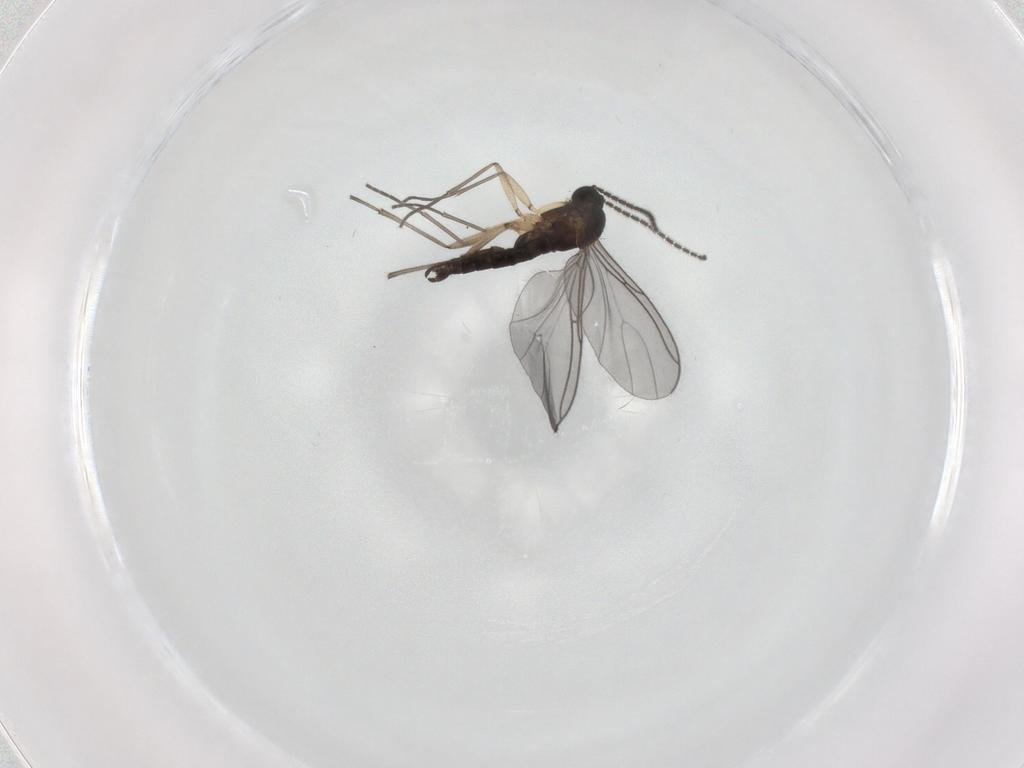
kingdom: Animalia
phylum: Arthropoda
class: Insecta
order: Diptera
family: Sciaridae
